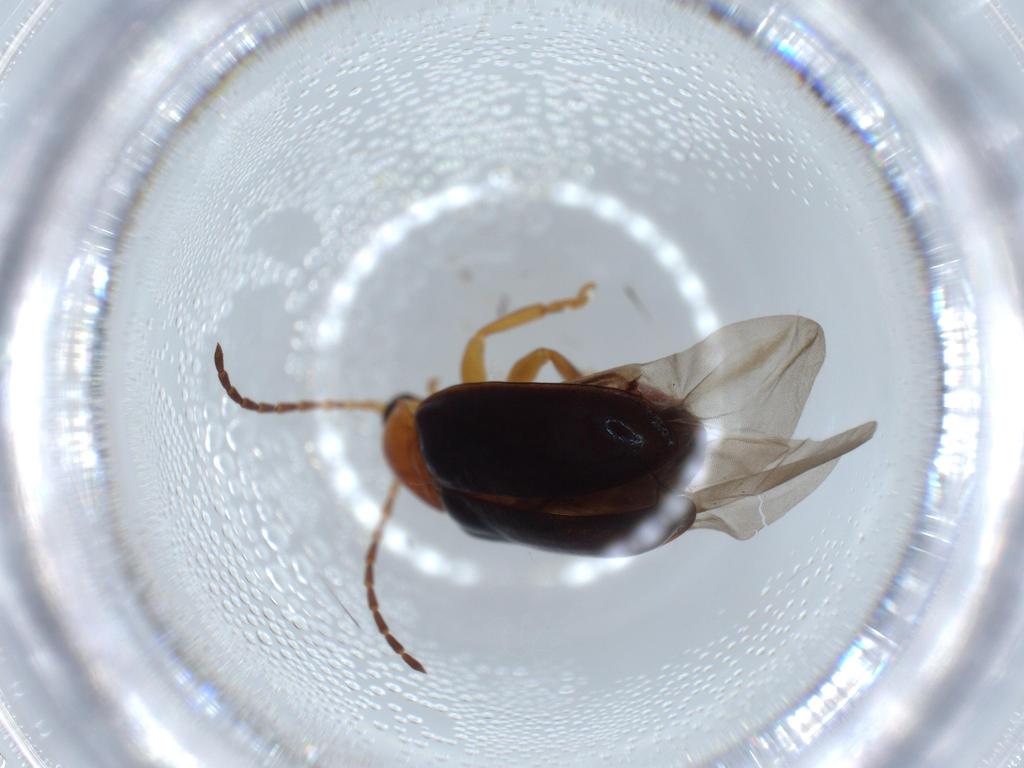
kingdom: Animalia
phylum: Arthropoda
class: Insecta
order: Coleoptera
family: Chrysomelidae
